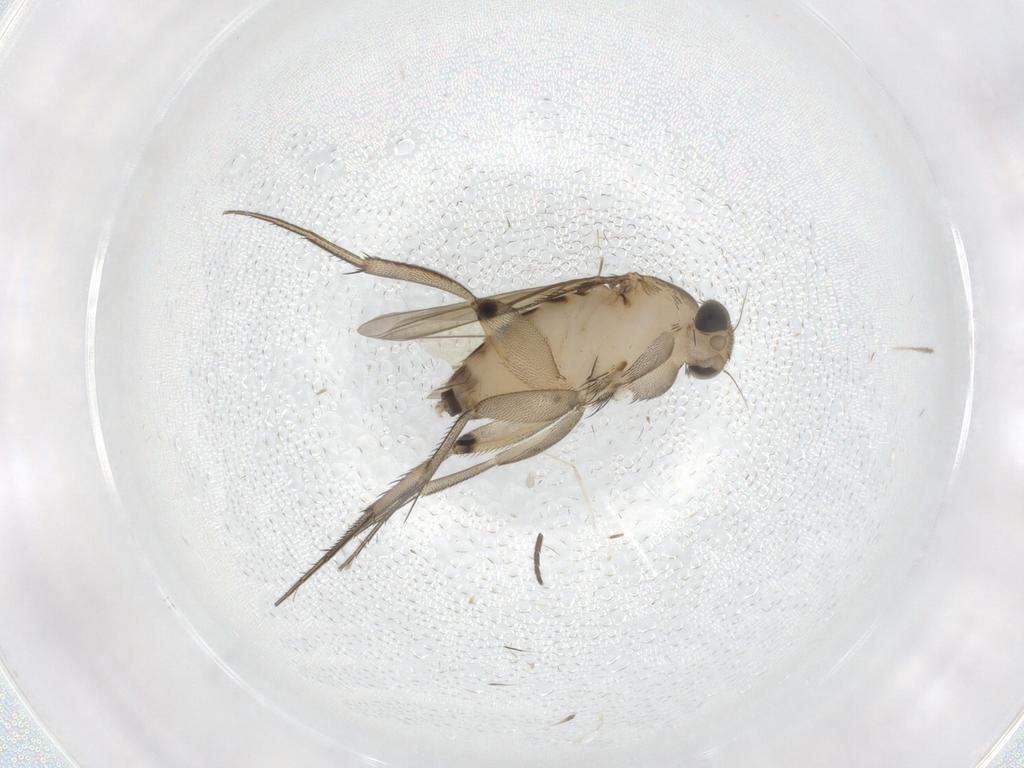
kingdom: Animalia
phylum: Arthropoda
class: Insecta
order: Diptera
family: Phoridae
